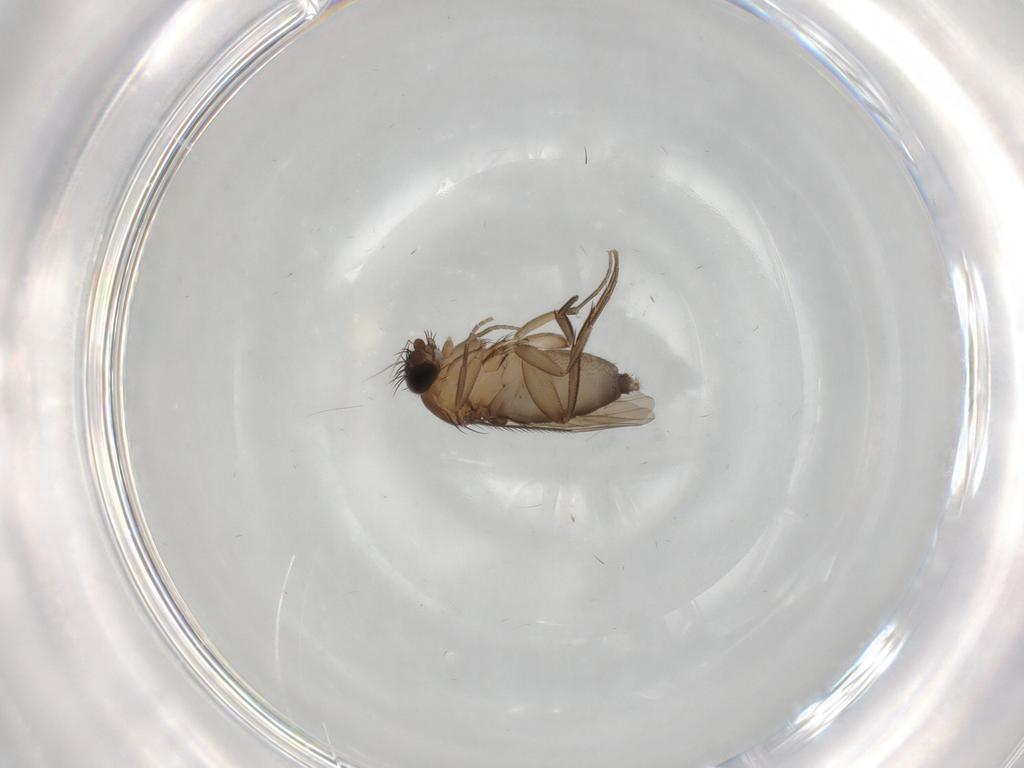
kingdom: Animalia
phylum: Arthropoda
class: Insecta
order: Diptera
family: Phoridae
